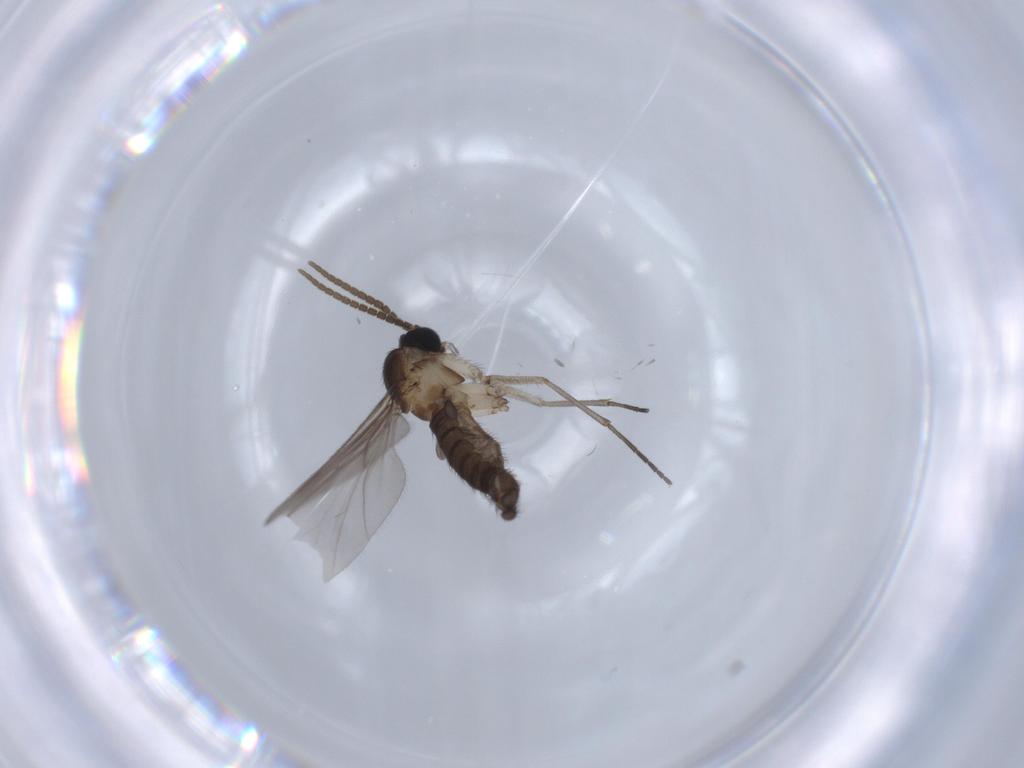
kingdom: Animalia
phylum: Arthropoda
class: Insecta
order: Diptera
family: Sciaridae
